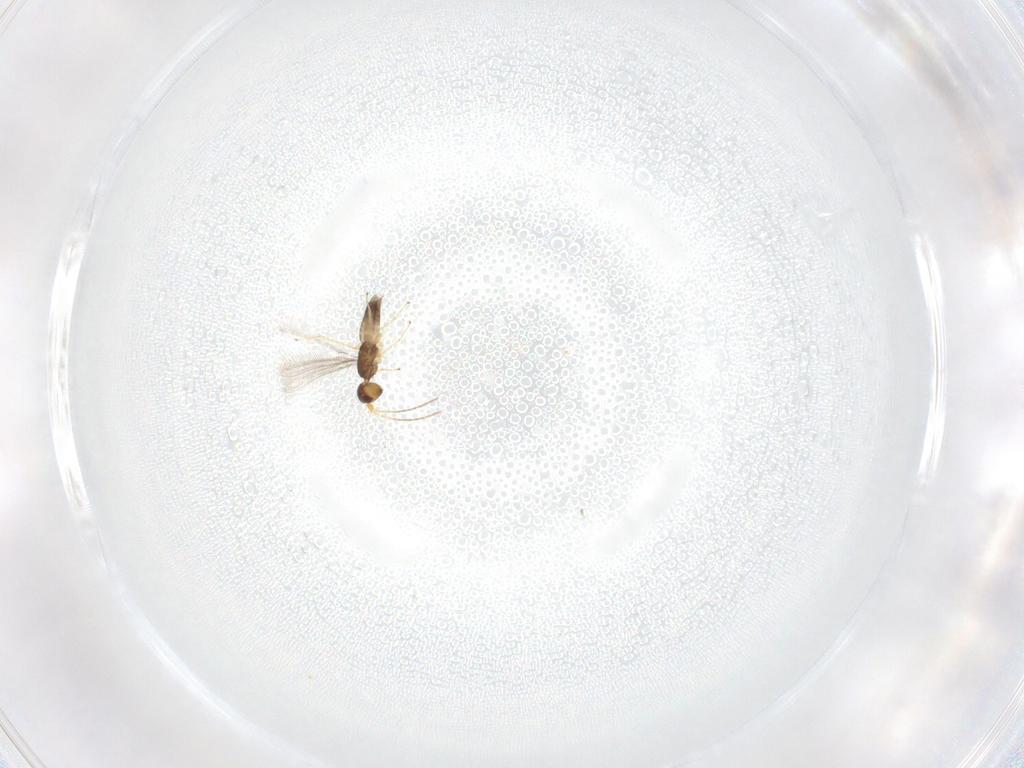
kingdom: Animalia
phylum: Arthropoda
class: Insecta
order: Hymenoptera
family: Mymaridae
